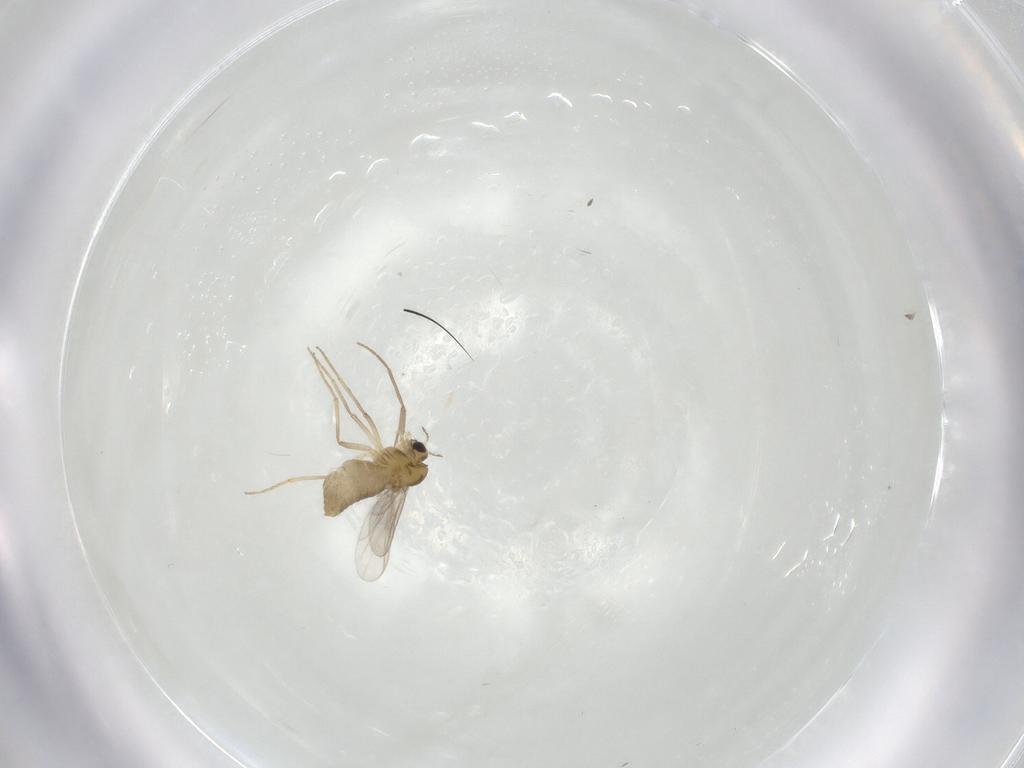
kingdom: Animalia
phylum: Arthropoda
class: Insecta
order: Diptera
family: Chironomidae
